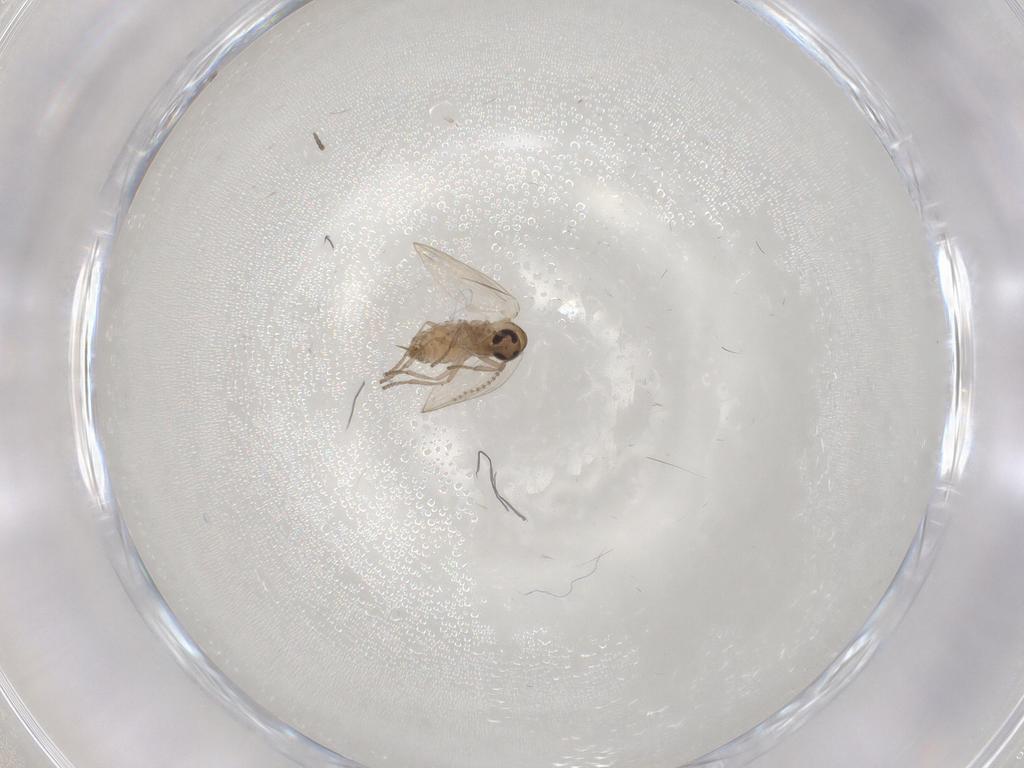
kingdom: Animalia
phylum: Arthropoda
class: Insecta
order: Diptera
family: Psychodidae
